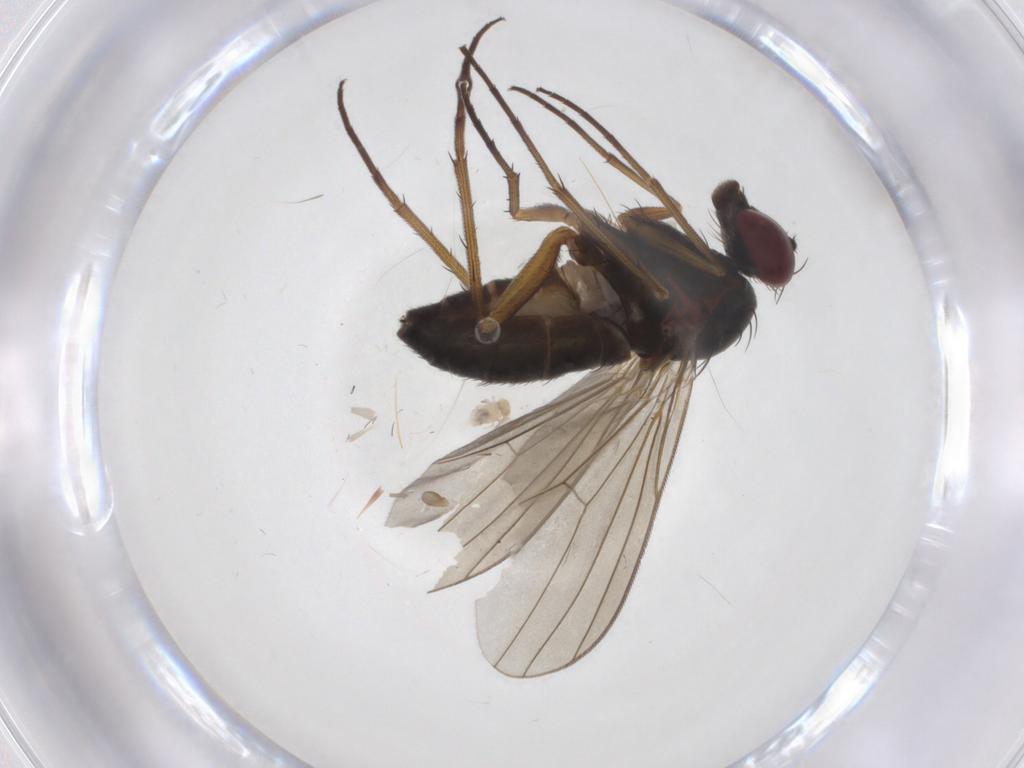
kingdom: Animalia
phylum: Arthropoda
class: Insecta
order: Diptera
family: Dolichopodidae
